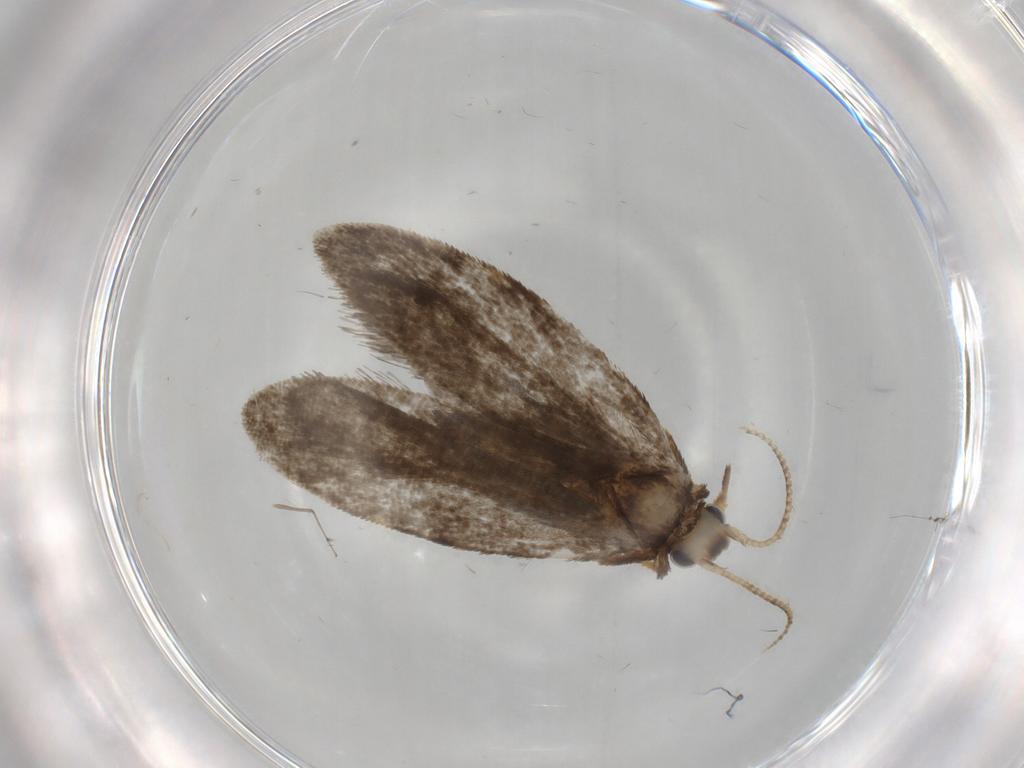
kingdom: Animalia
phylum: Arthropoda
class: Insecta
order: Lepidoptera
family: Psychidae
